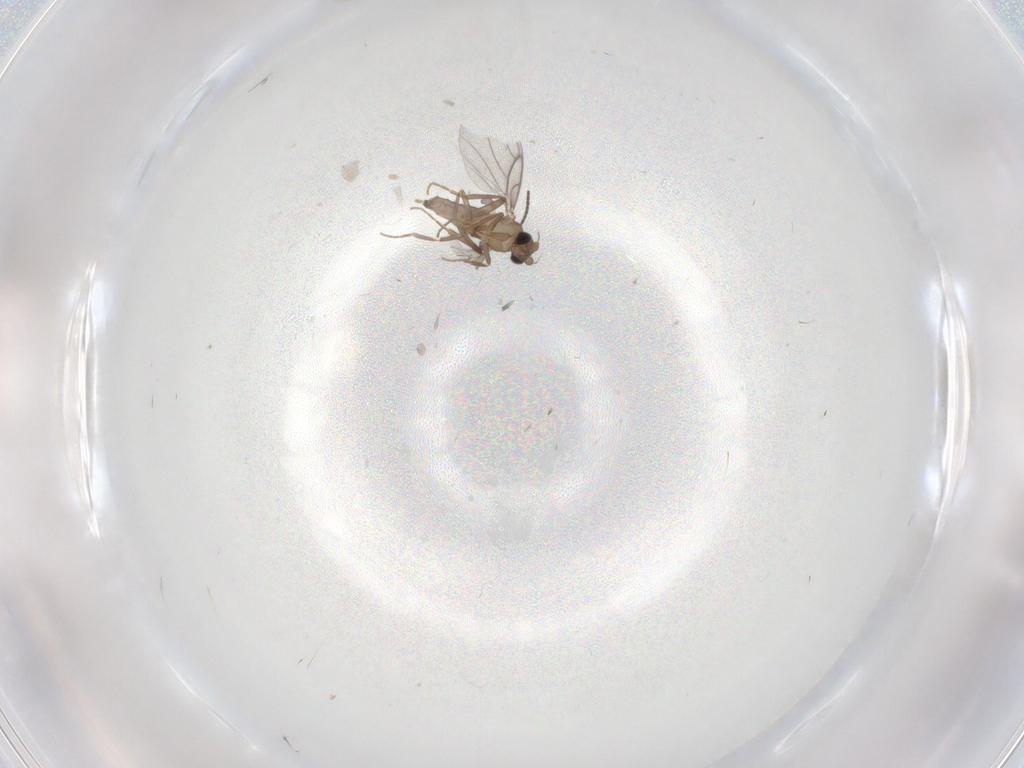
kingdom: Animalia
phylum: Arthropoda
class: Insecta
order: Diptera
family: Sciaridae
